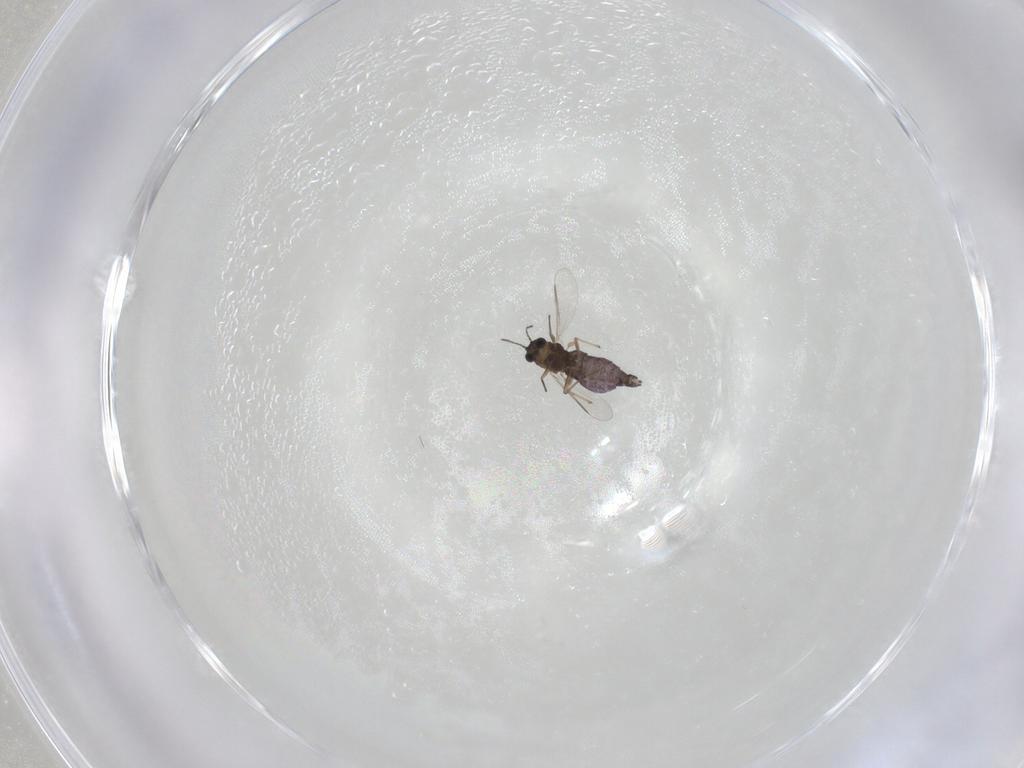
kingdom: Animalia
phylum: Arthropoda
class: Insecta
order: Diptera
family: Chironomidae
